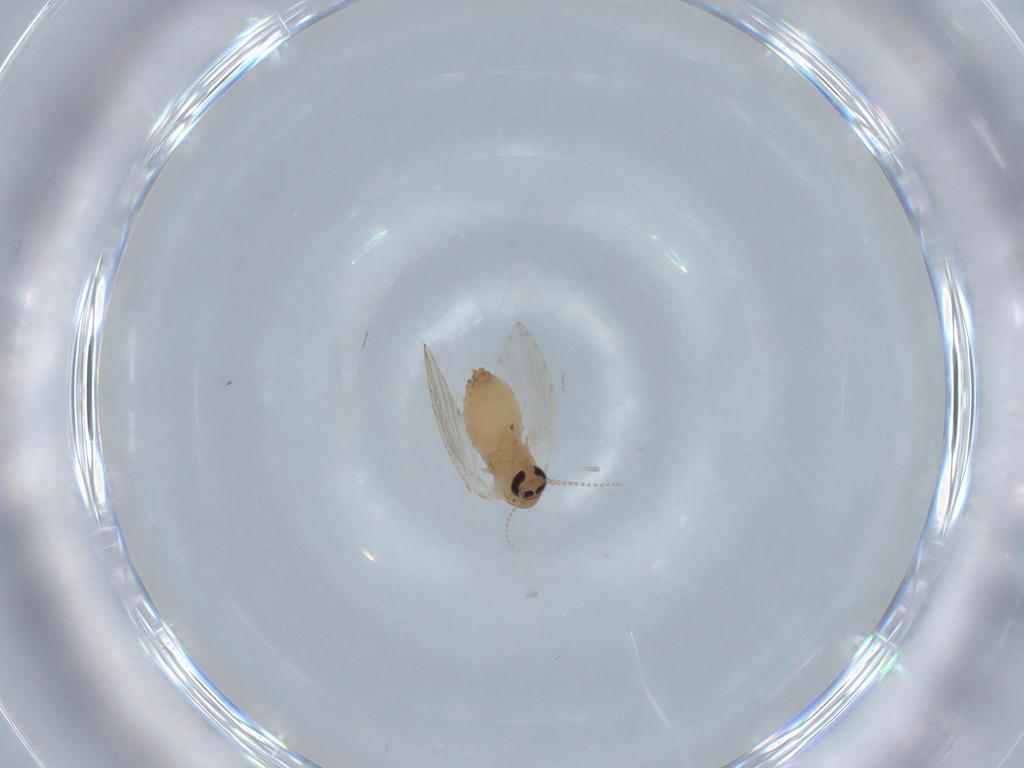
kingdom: Animalia
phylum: Arthropoda
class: Insecta
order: Diptera
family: Psychodidae
